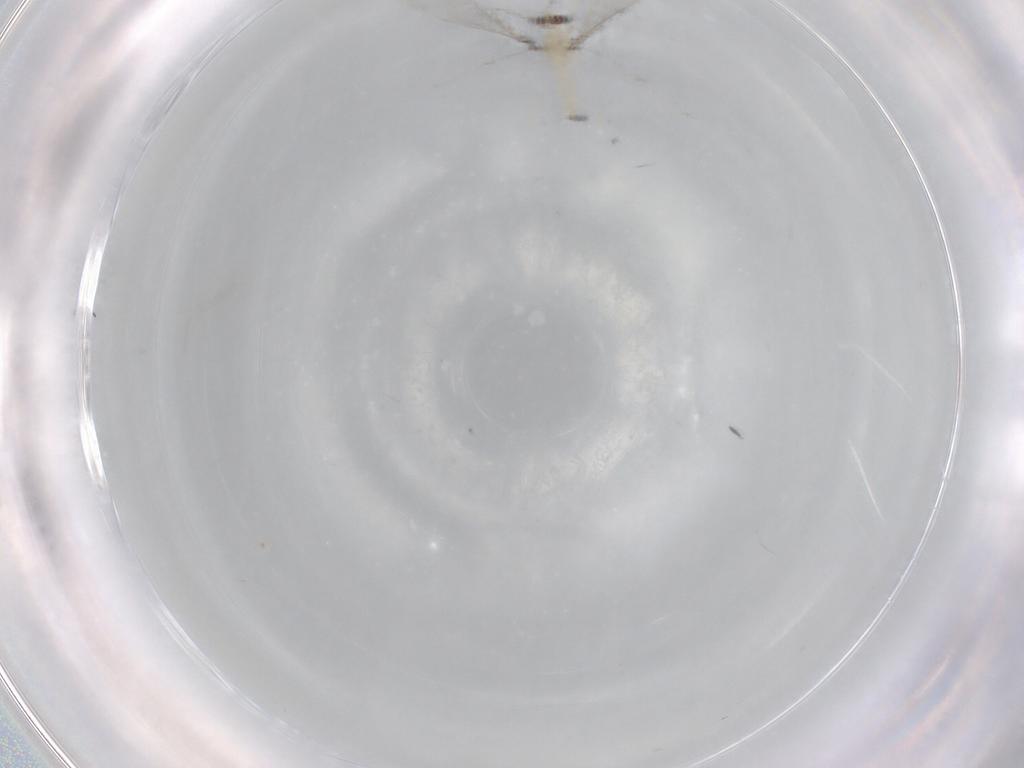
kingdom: Animalia
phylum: Arthropoda
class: Insecta
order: Diptera
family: Cecidomyiidae
